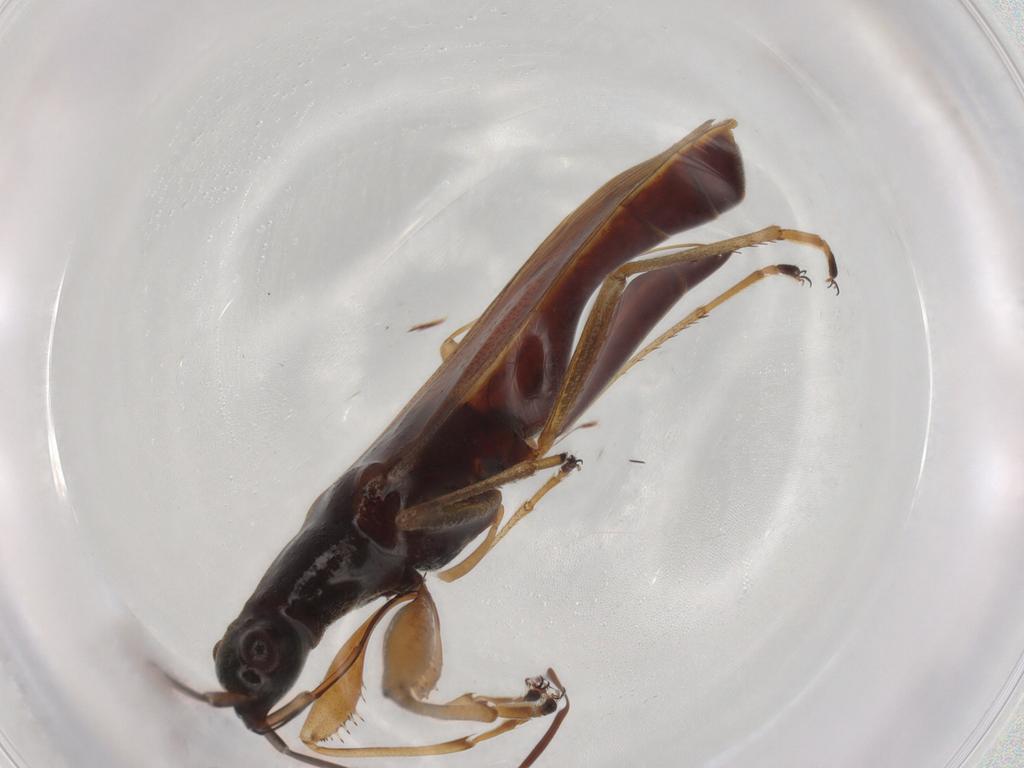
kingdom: Animalia
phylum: Arthropoda
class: Insecta
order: Hemiptera
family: Rhyparochromidae
